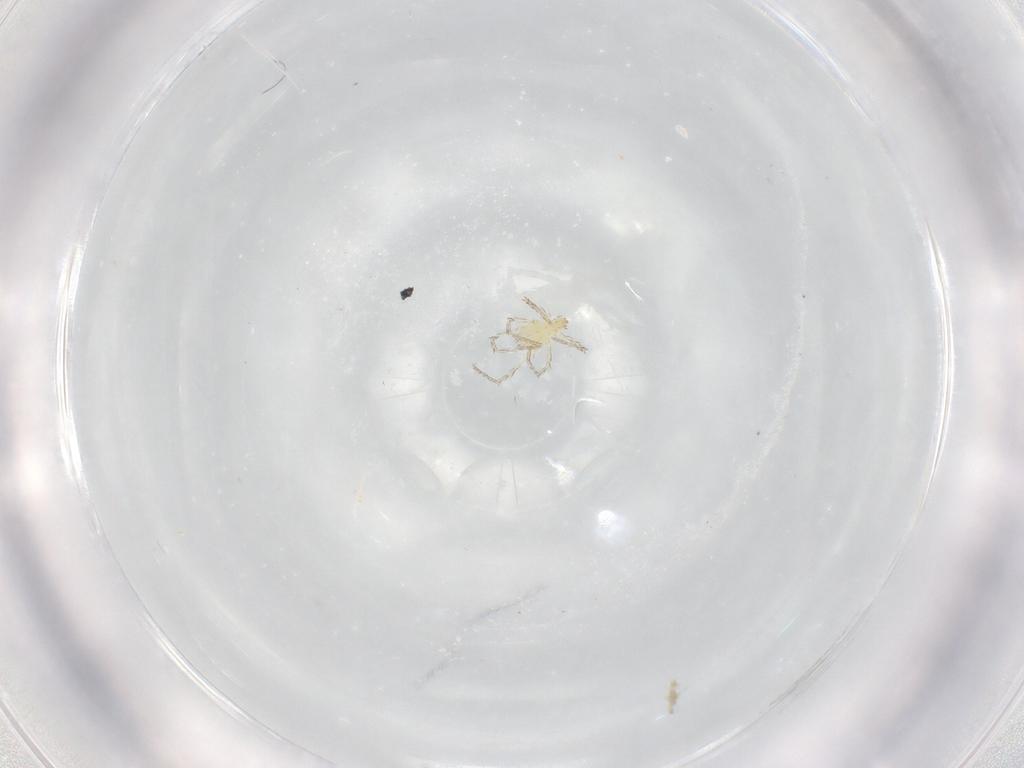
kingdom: Animalia
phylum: Arthropoda
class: Arachnida
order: Trombidiformes
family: Erythraeidae
